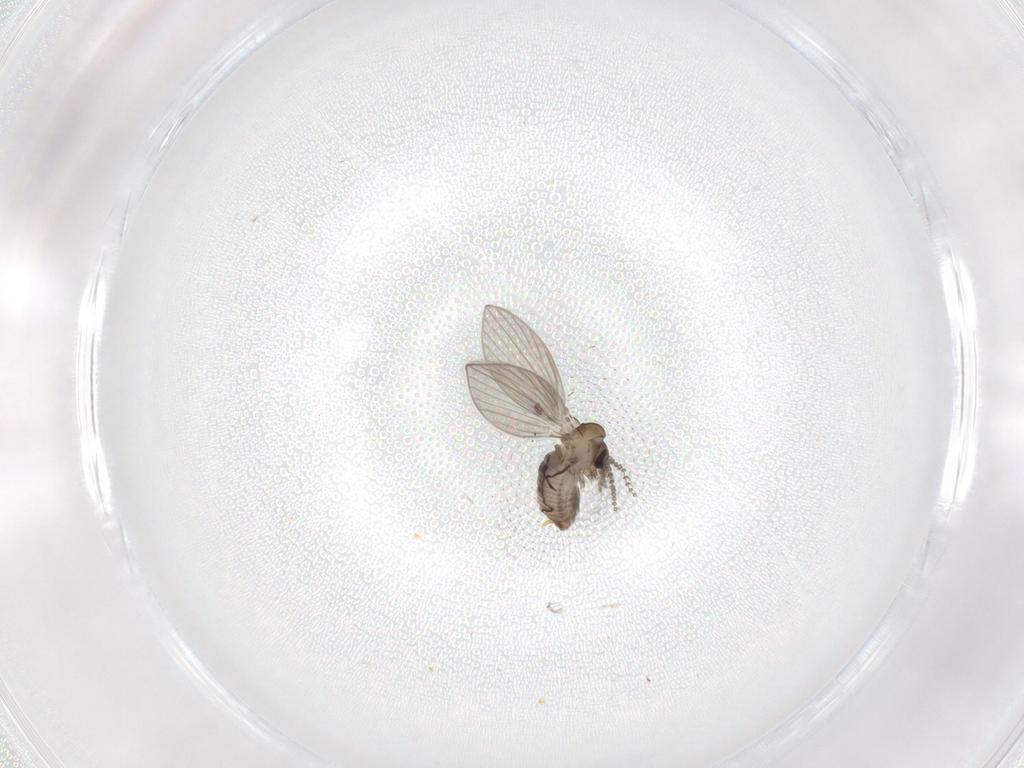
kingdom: Animalia
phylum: Arthropoda
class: Insecta
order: Diptera
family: Psychodidae
